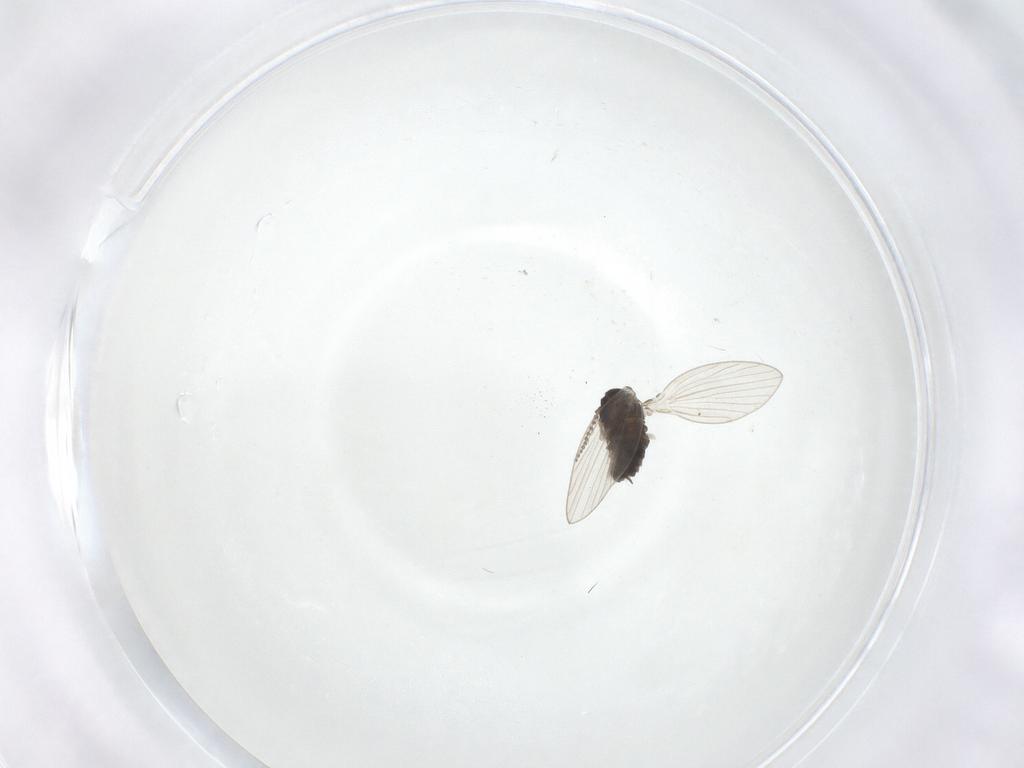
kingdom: Animalia
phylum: Arthropoda
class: Insecta
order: Diptera
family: Psychodidae
